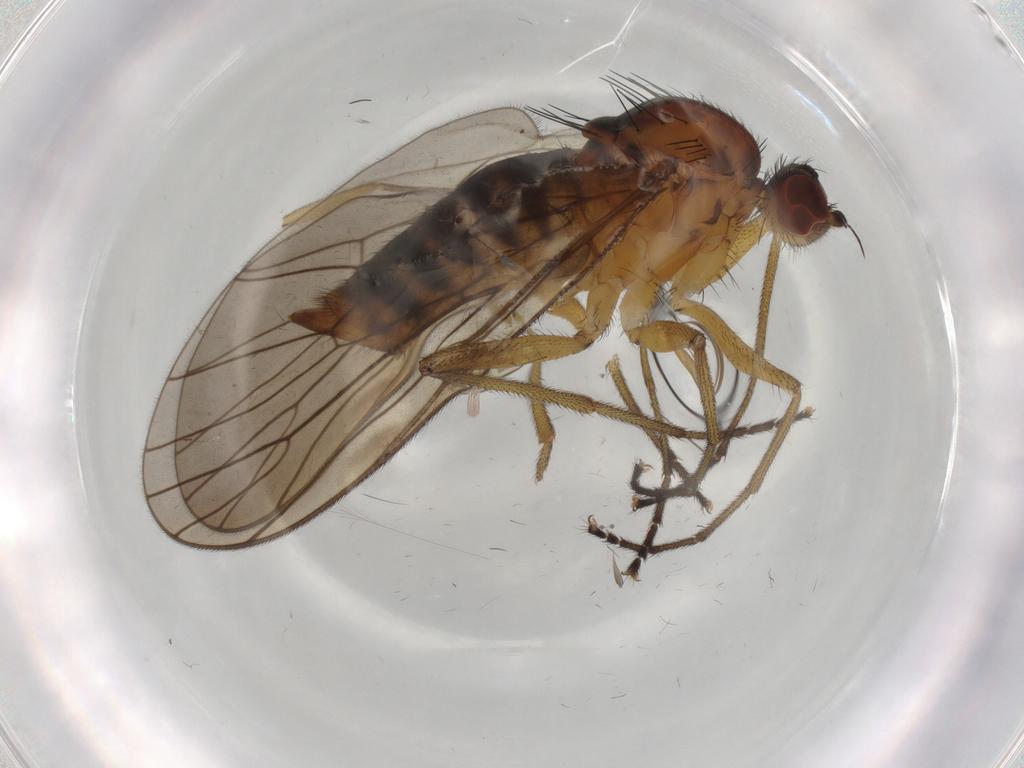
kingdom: Animalia
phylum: Arthropoda
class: Insecta
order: Diptera
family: Brachystomatidae
